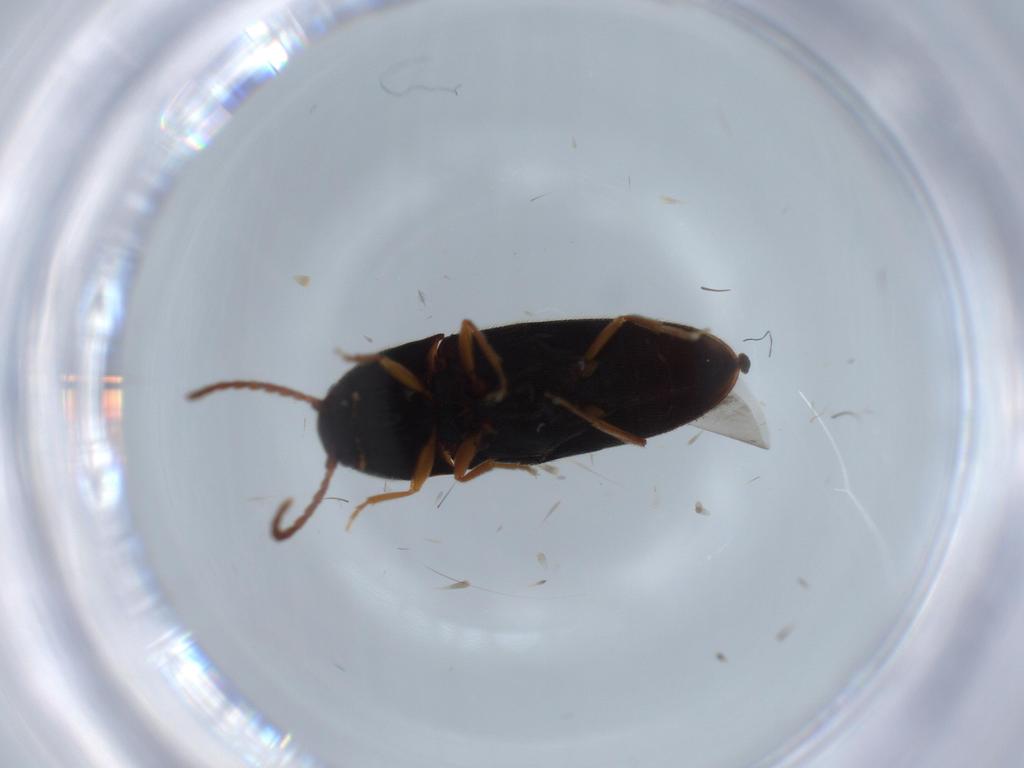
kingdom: Animalia
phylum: Arthropoda
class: Insecta
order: Coleoptera
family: Elateridae
